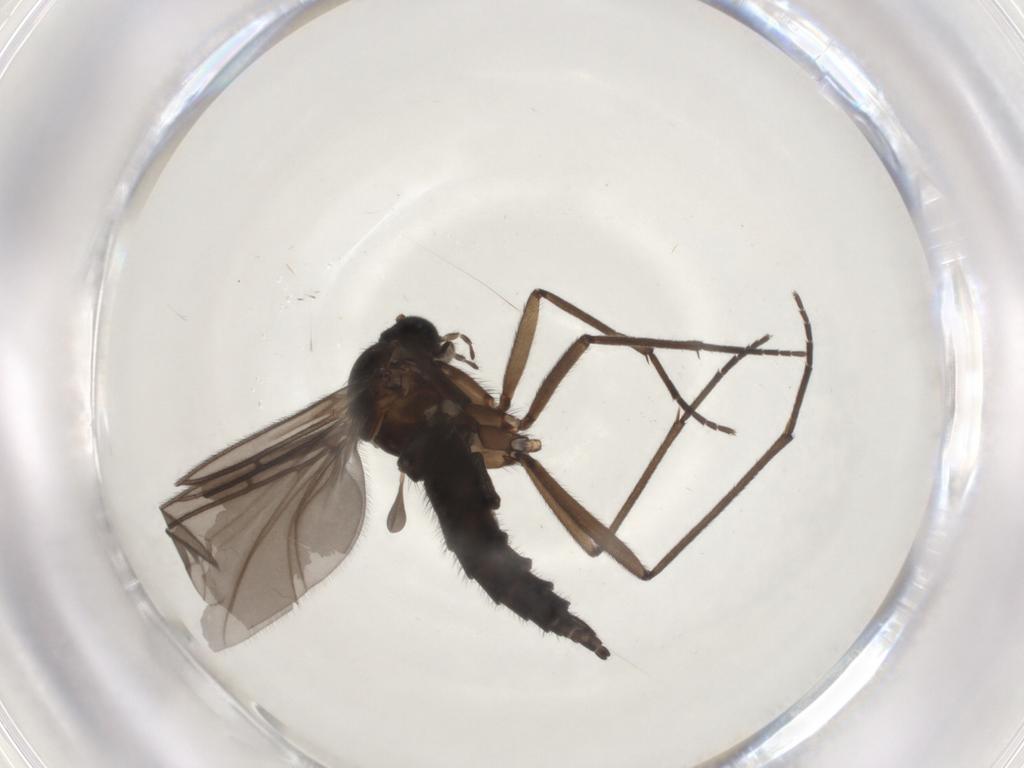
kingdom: Animalia
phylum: Arthropoda
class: Insecta
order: Diptera
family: Sciaridae
